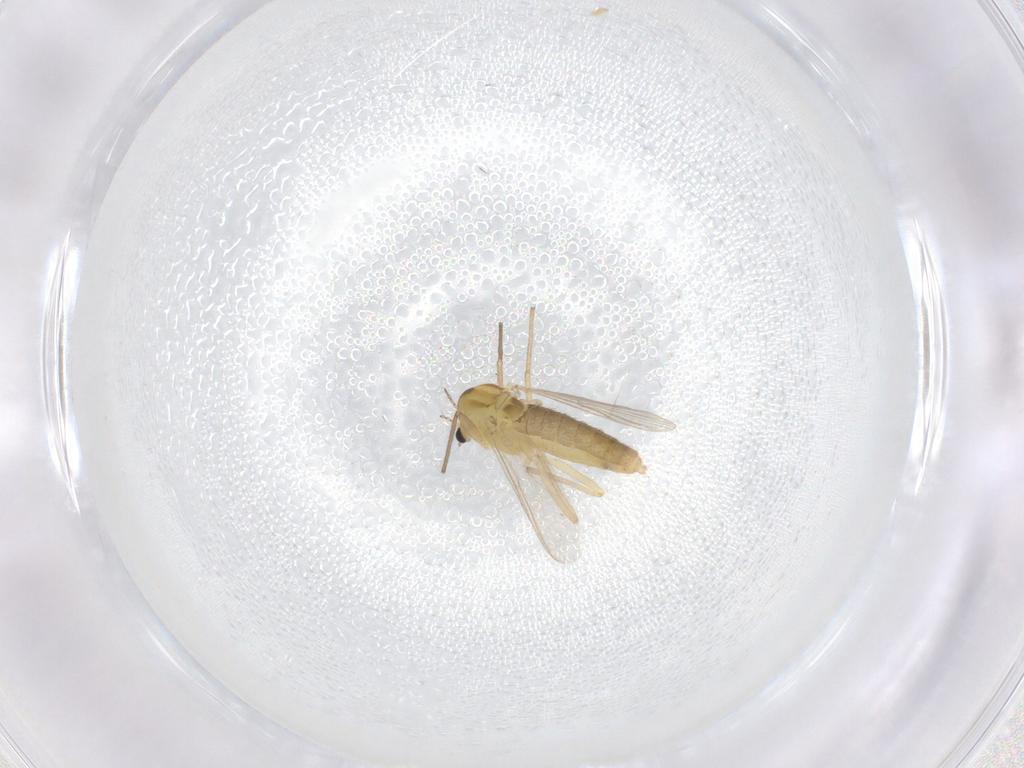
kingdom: Animalia
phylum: Arthropoda
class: Insecta
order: Diptera
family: Chironomidae
